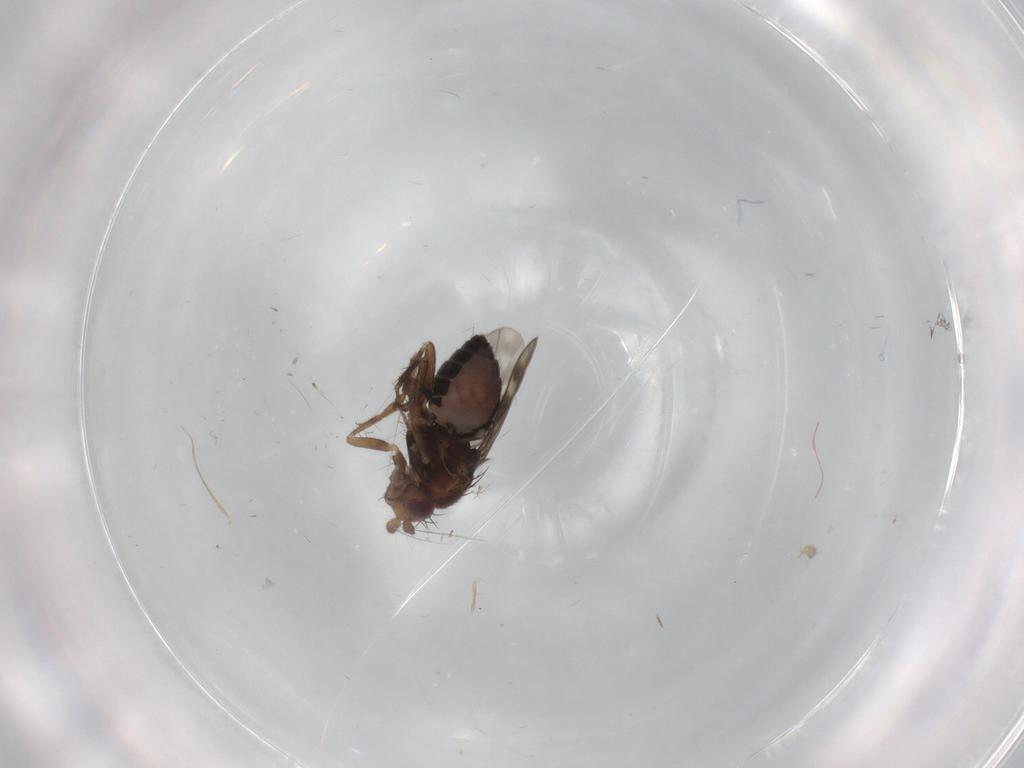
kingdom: Animalia
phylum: Arthropoda
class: Insecta
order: Diptera
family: Sphaeroceridae
